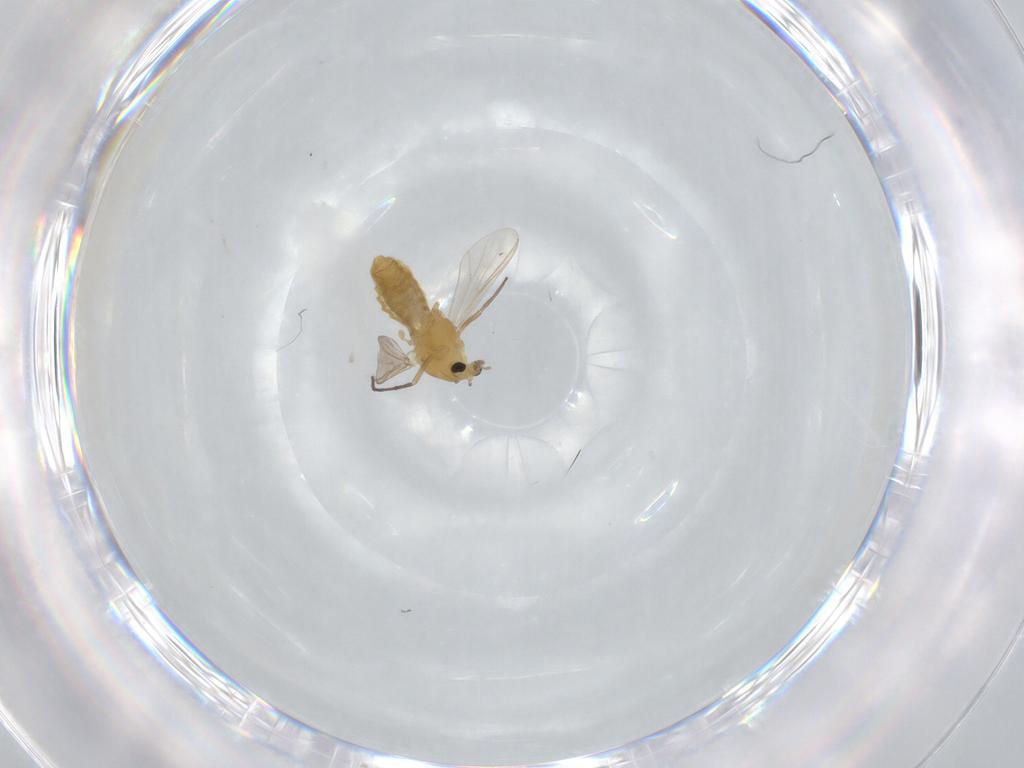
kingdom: Animalia
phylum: Arthropoda
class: Insecta
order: Diptera
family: Chironomidae
